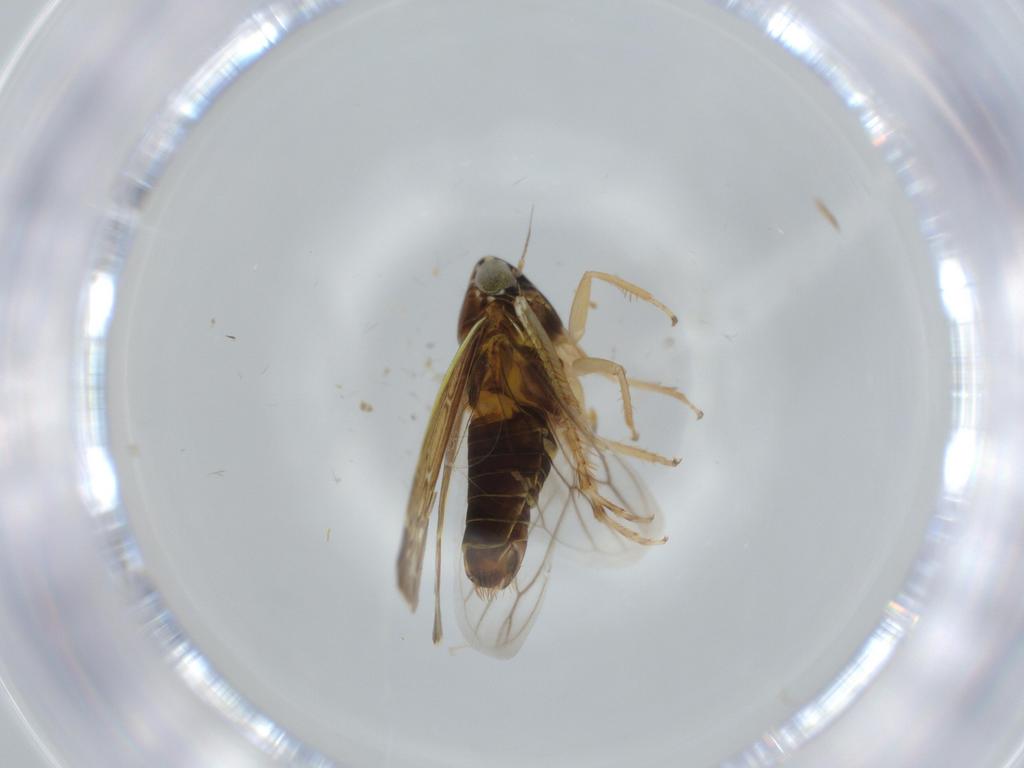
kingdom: Animalia
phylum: Arthropoda
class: Insecta
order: Hemiptera
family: Cicadellidae
